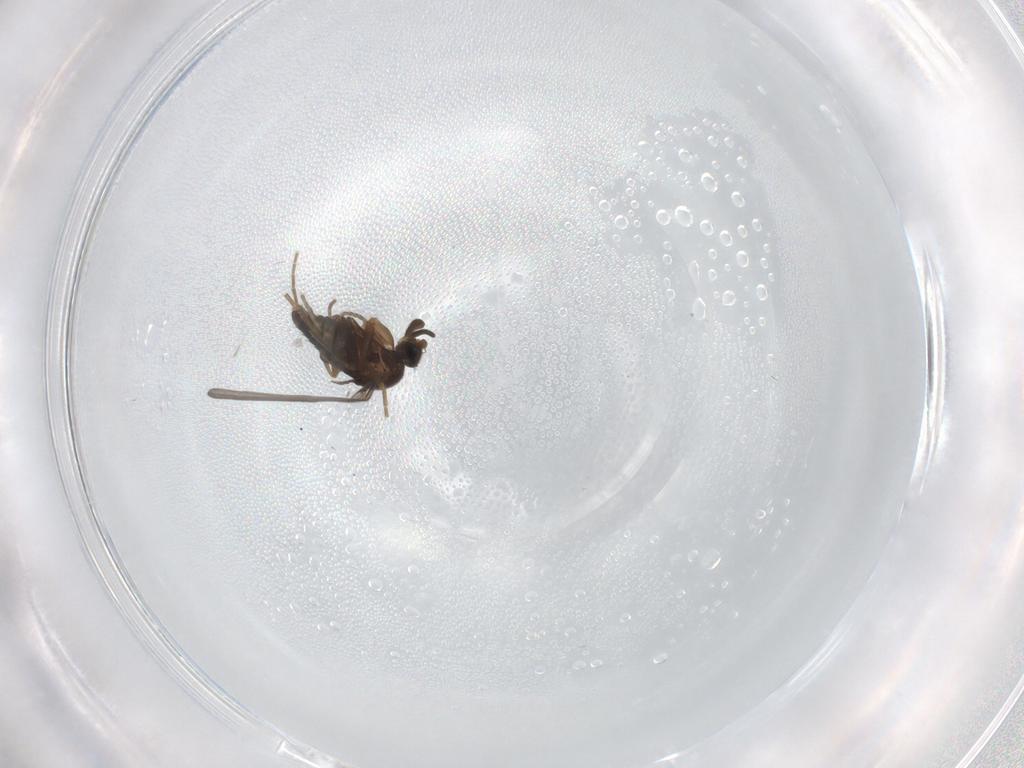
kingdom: Animalia
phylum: Arthropoda
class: Insecta
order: Diptera
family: Phoridae
